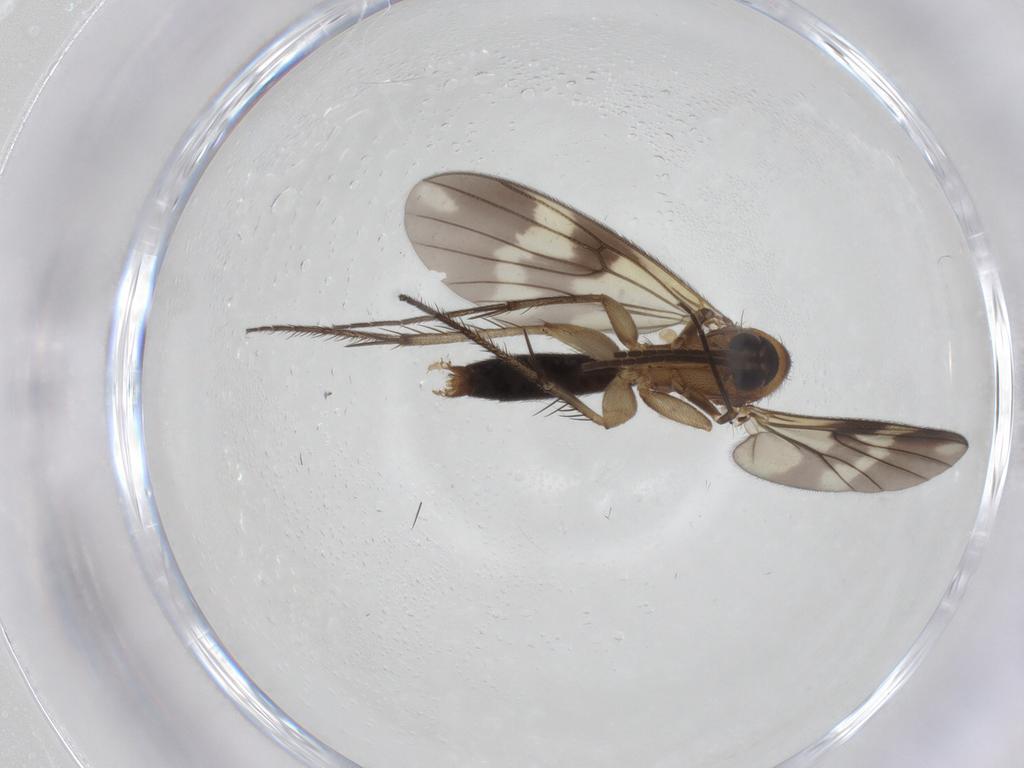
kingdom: Animalia
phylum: Arthropoda
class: Insecta
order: Diptera
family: Mycetophilidae
